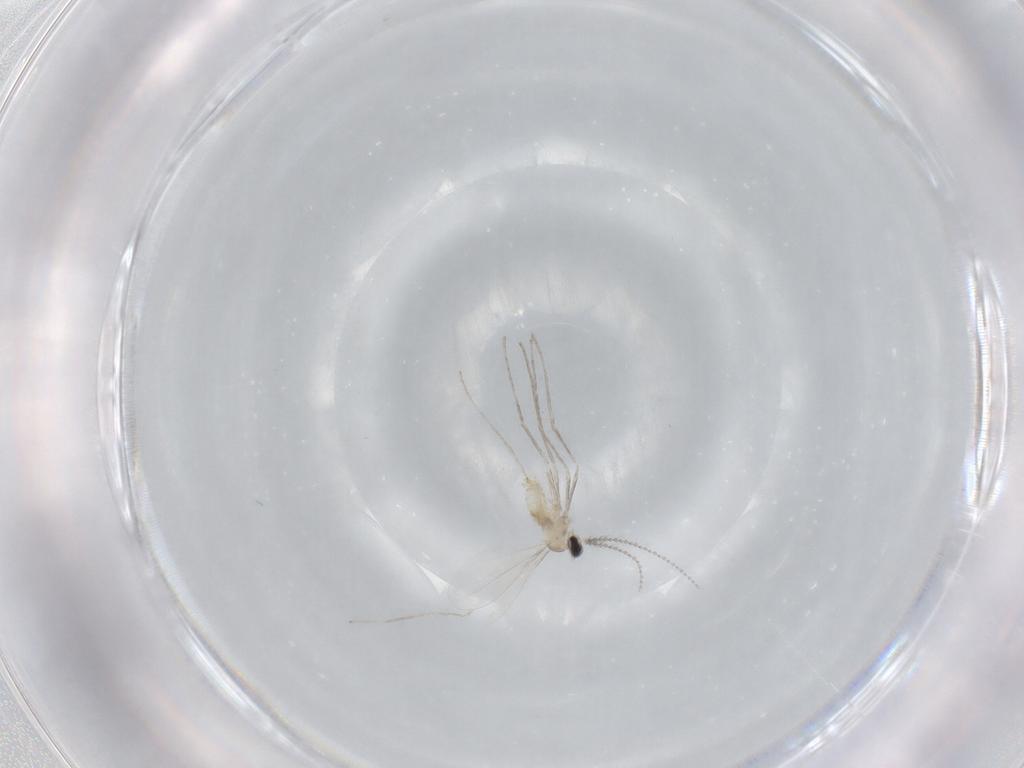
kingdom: Animalia
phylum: Arthropoda
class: Insecta
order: Diptera
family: Cecidomyiidae
